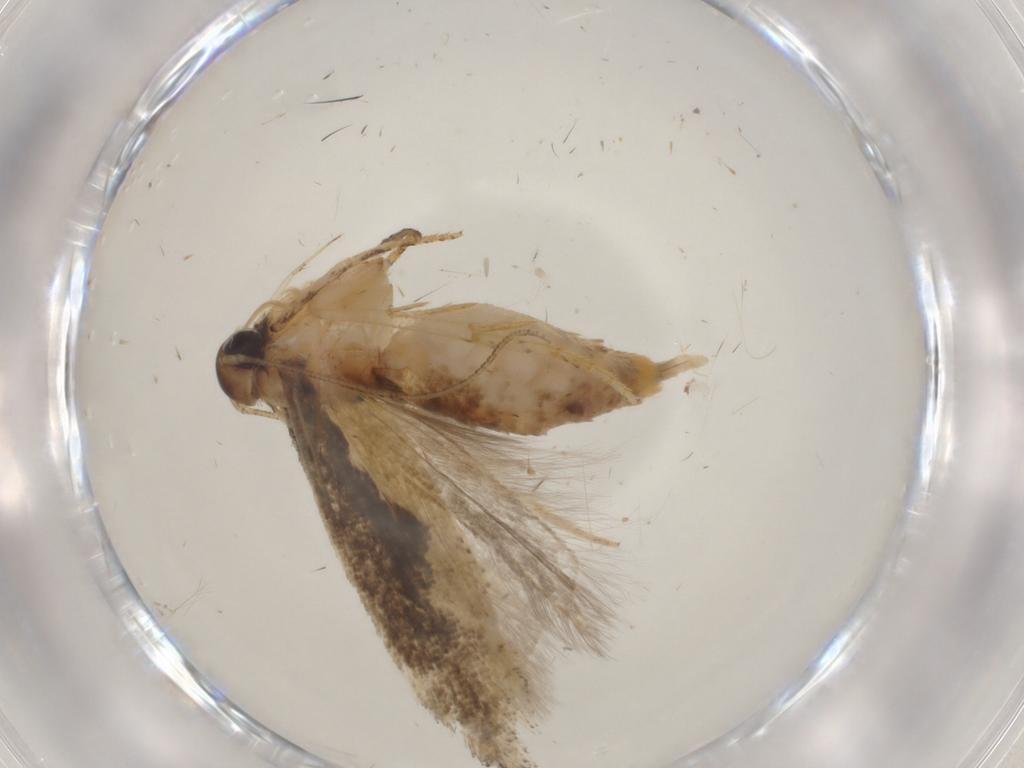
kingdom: Animalia
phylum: Arthropoda
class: Insecta
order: Lepidoptera
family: Gelechiidae
